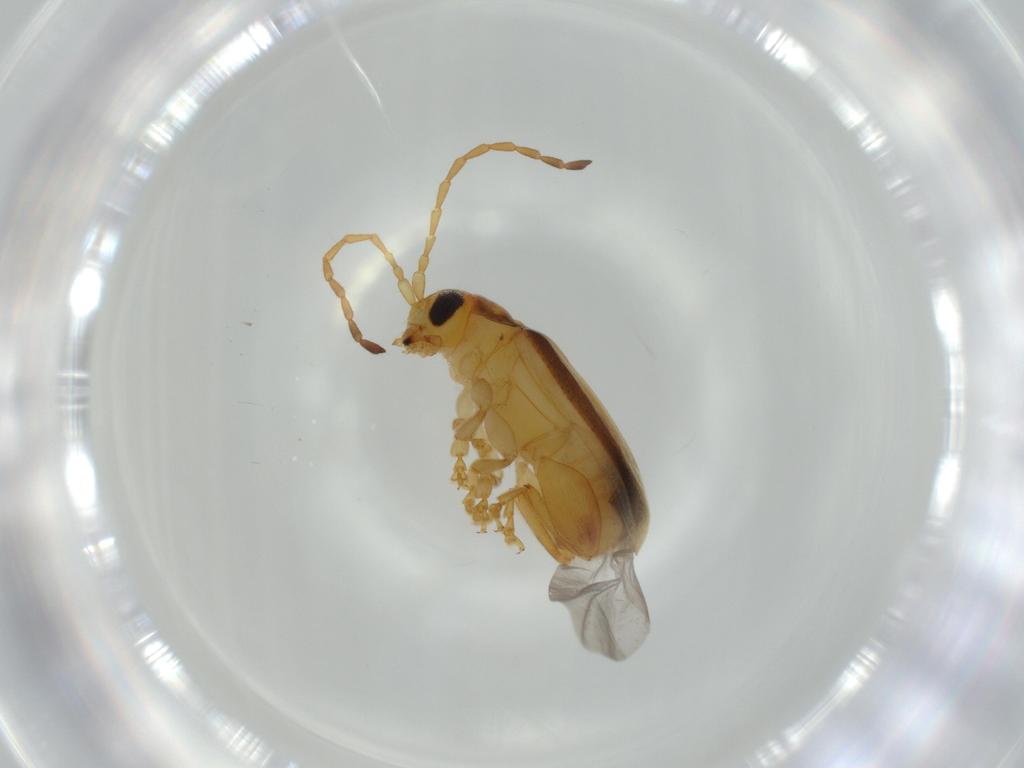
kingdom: Animalia
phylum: Arthropoda
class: Insecta
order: Coleoptera
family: Chrysomelidae
